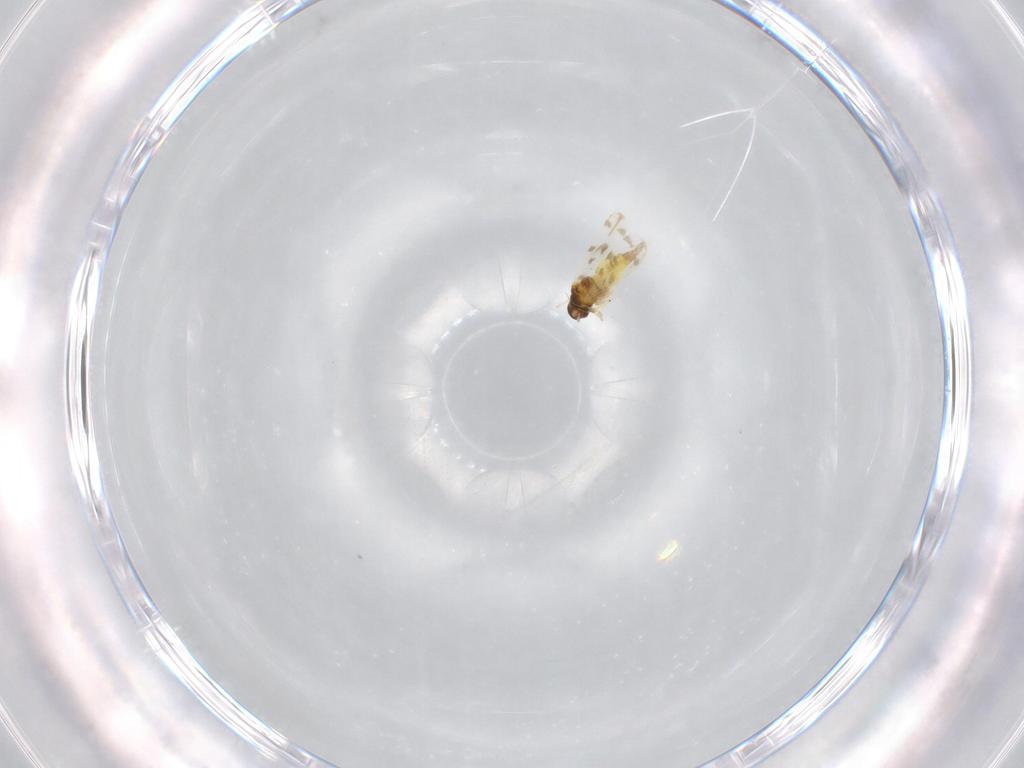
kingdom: Animalia
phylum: Arthropoda
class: Insecta
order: Hemiptera
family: Aleyrodidae
